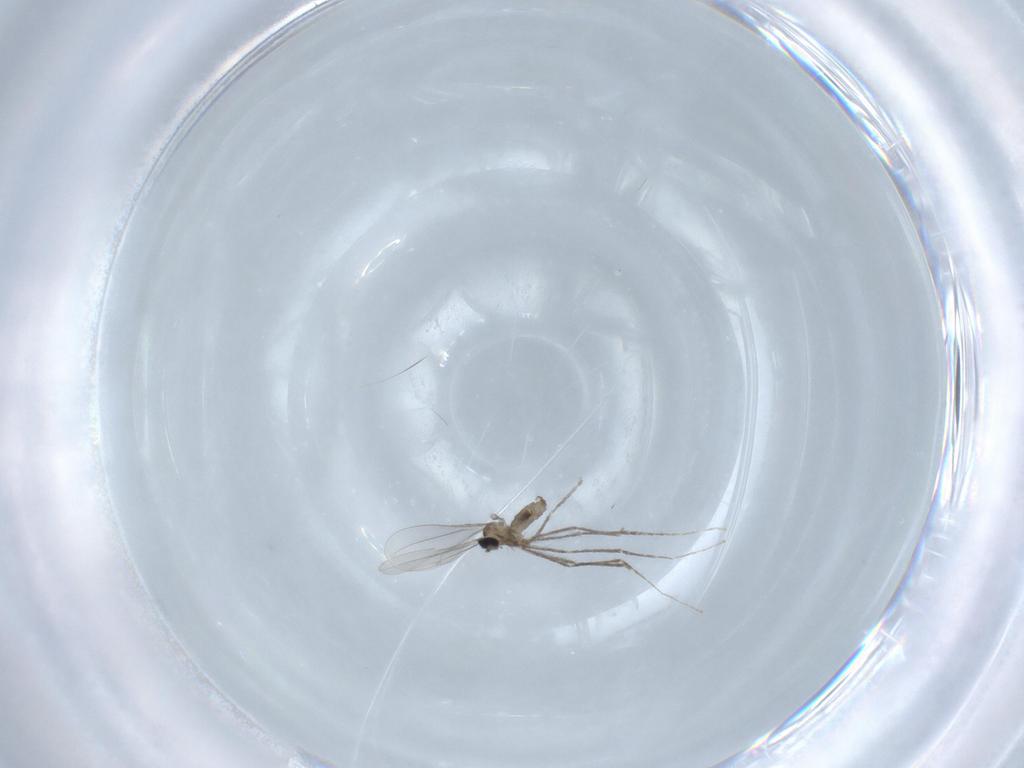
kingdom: Animalia
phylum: Arthropoda
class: Insecta
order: Diptera
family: Cecidomyiidae
